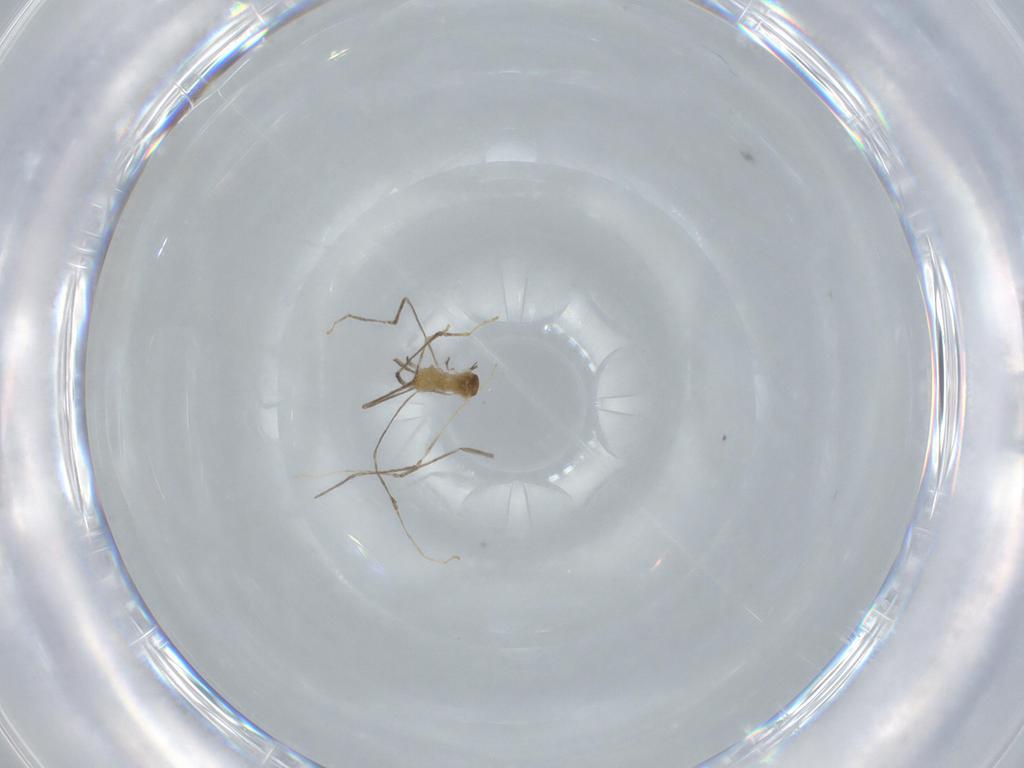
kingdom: Animalia
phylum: Arthropoda
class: Insecta
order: Diptera
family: Cecidomyiidae
